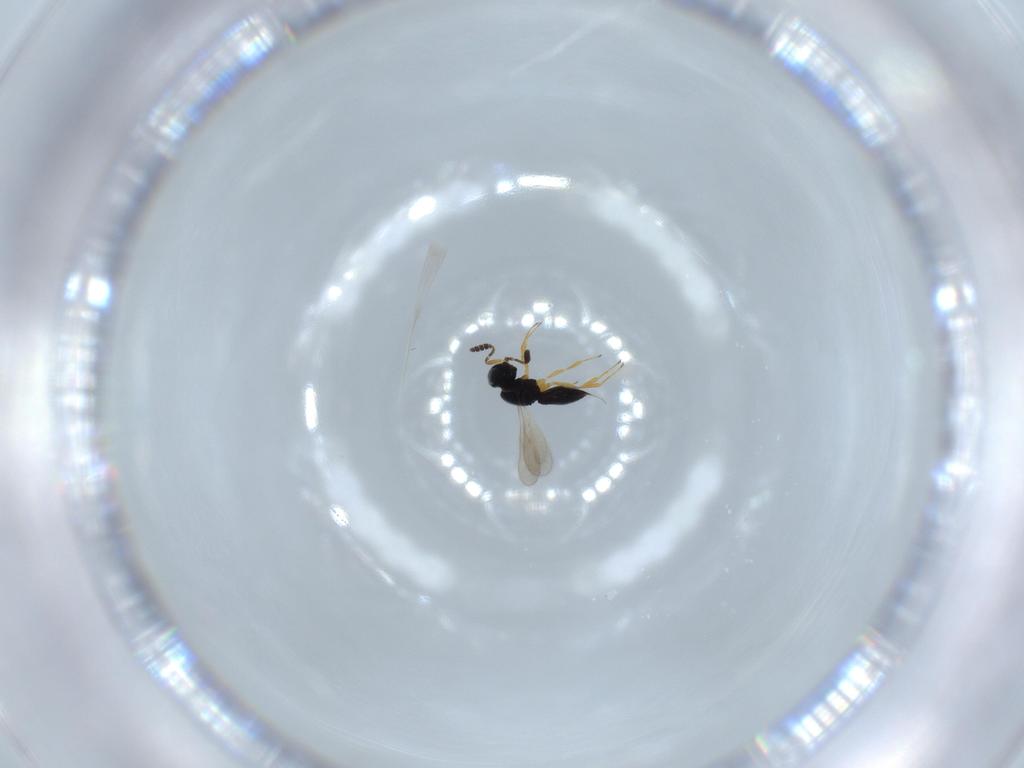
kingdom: Animalia
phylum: Arthropoda
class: Insecta
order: Hymenoptera
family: Scelionidae
